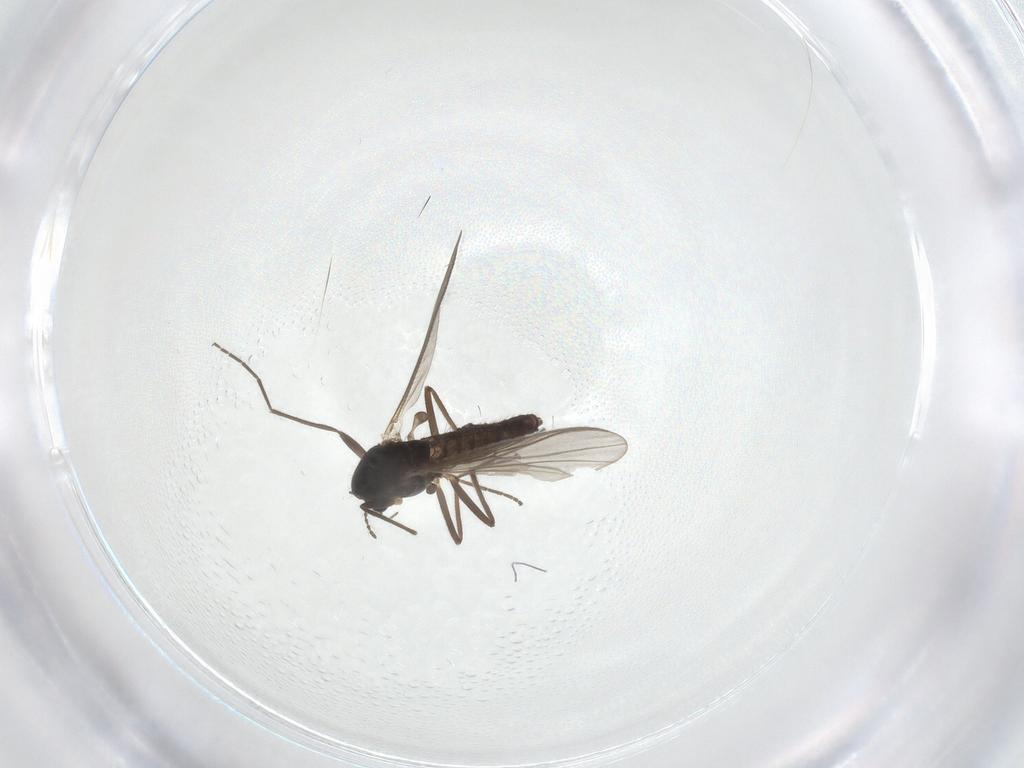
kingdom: Animalia
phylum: Arthropoda
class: Insecta
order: Diptera
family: Chironomidae
